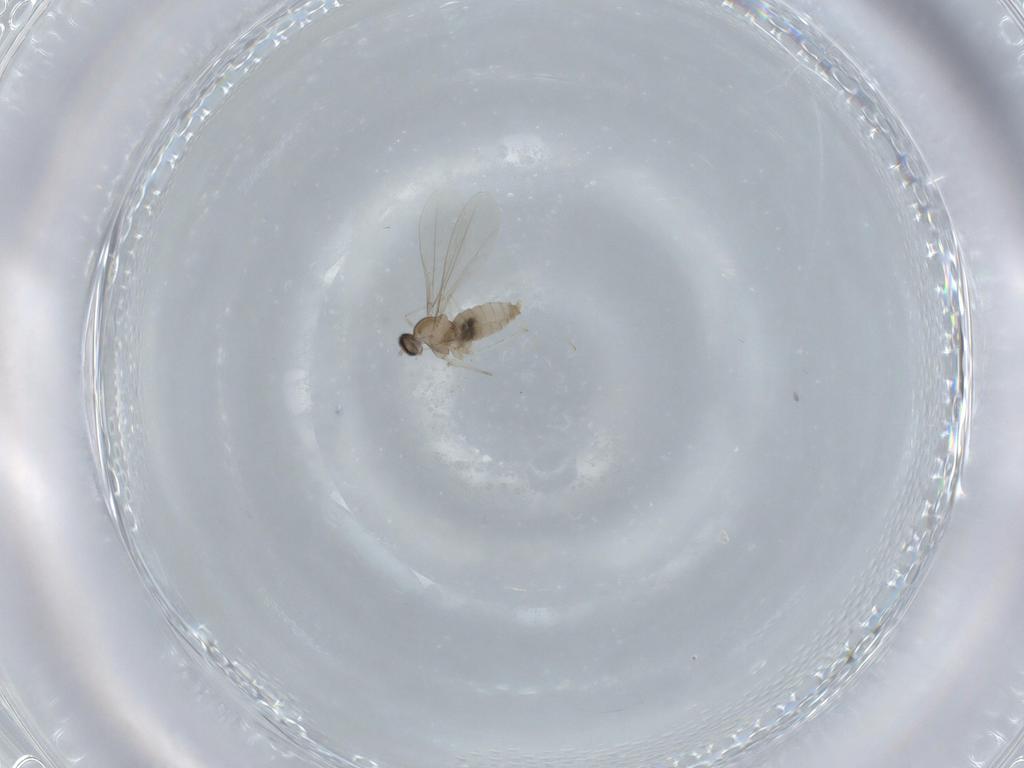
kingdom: Animalia
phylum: Arthropoda
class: Insecta
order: Diptera
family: Cecidomyiidae
